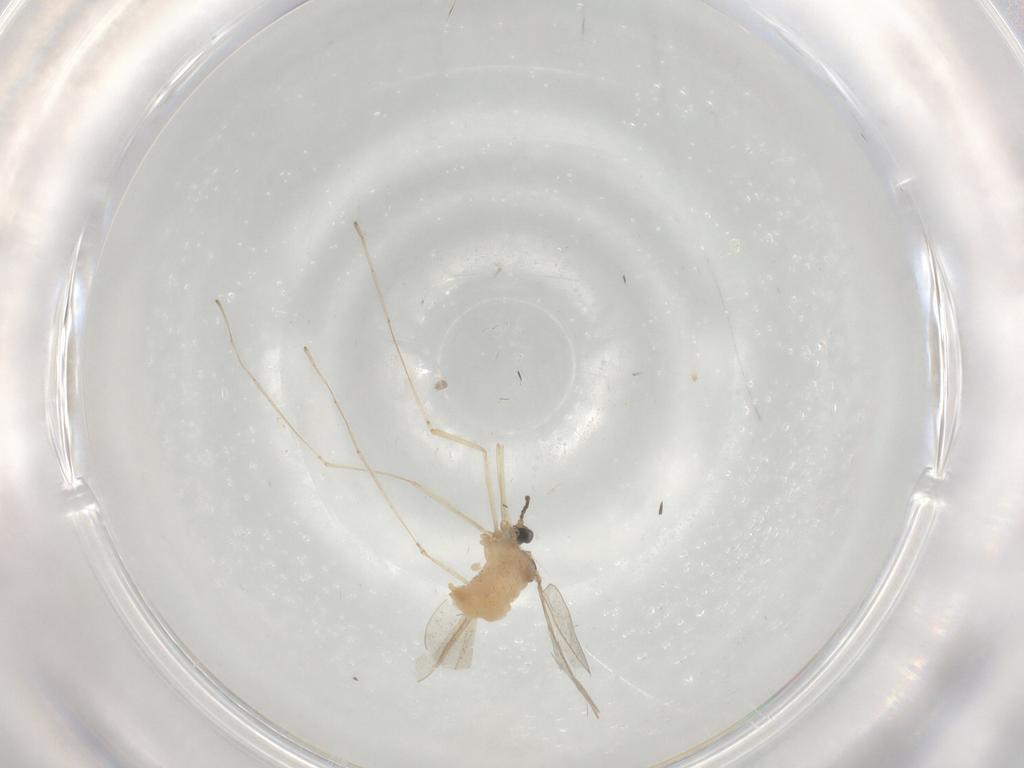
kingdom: Animalia
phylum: Arthropoda
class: Insecta
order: Diptera
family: Cecidomyiidae
